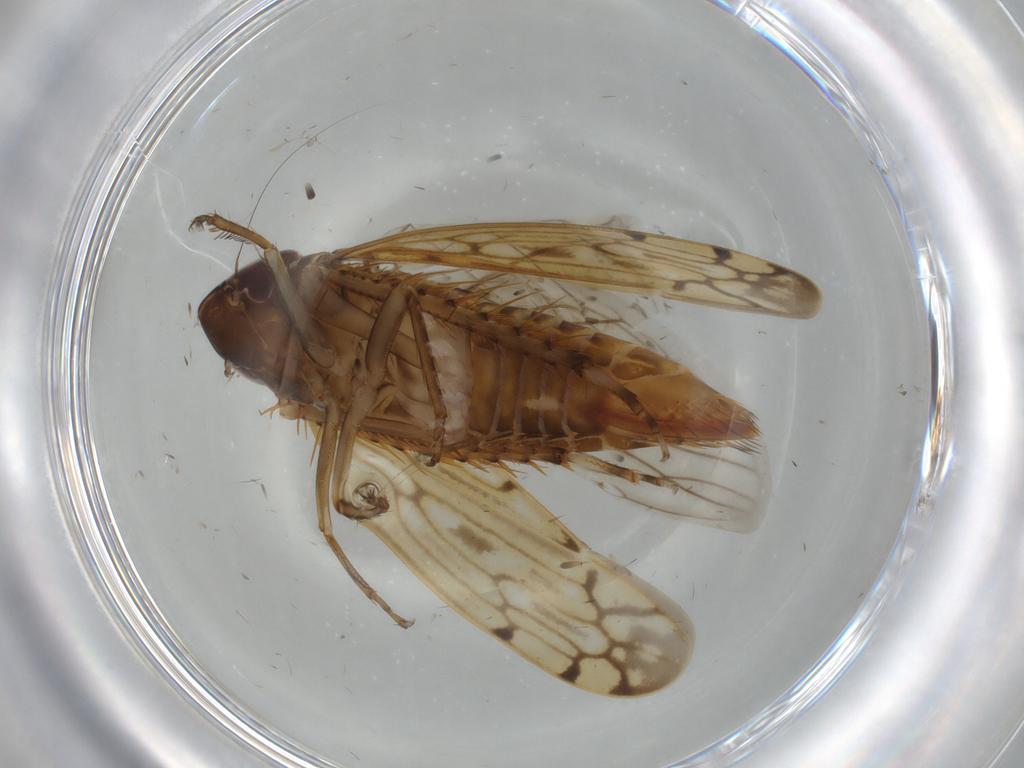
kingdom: Animalia
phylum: Arthropoda
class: Insecta
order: Hemiptera
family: Cicadellidae
